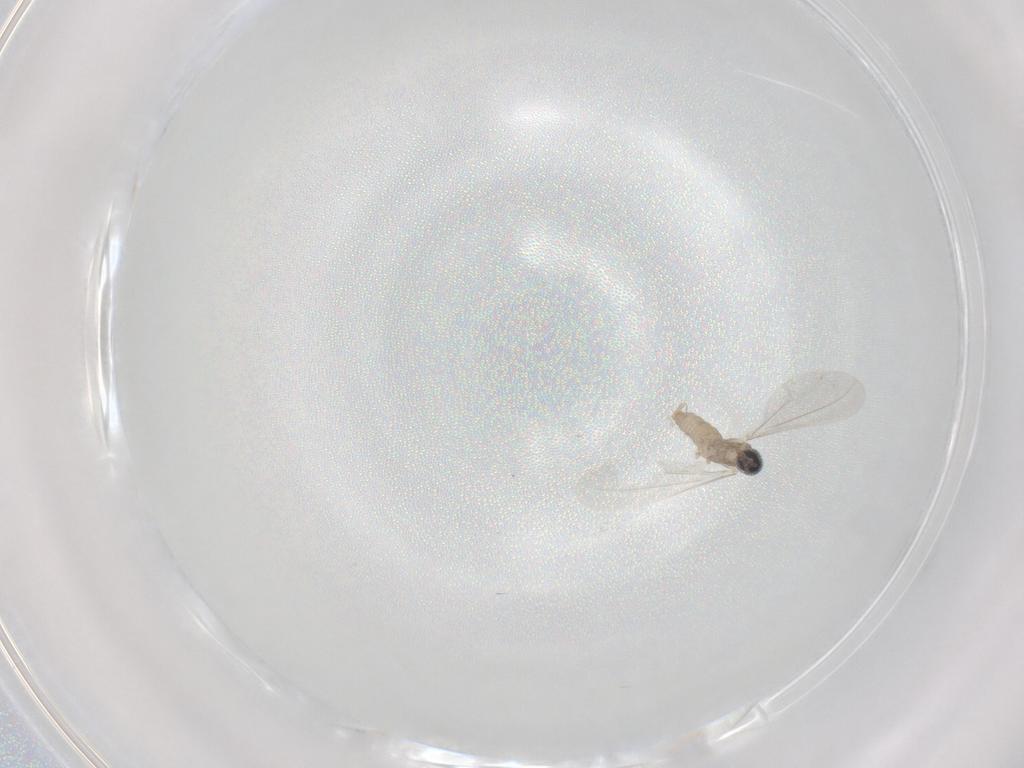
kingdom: Animalia
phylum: Arthropoda
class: Insecta
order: Diptera
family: Cecidomyiidae
